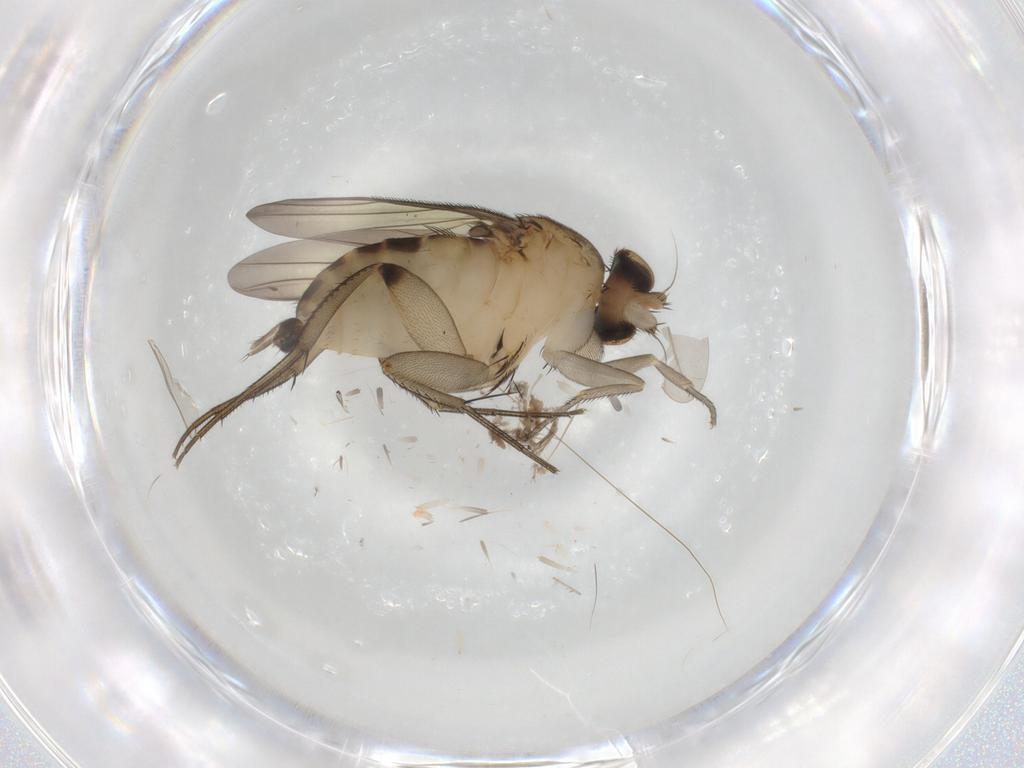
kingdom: Animalia
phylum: Arthropoda
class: Insecta
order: Diptera
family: Phoridae
